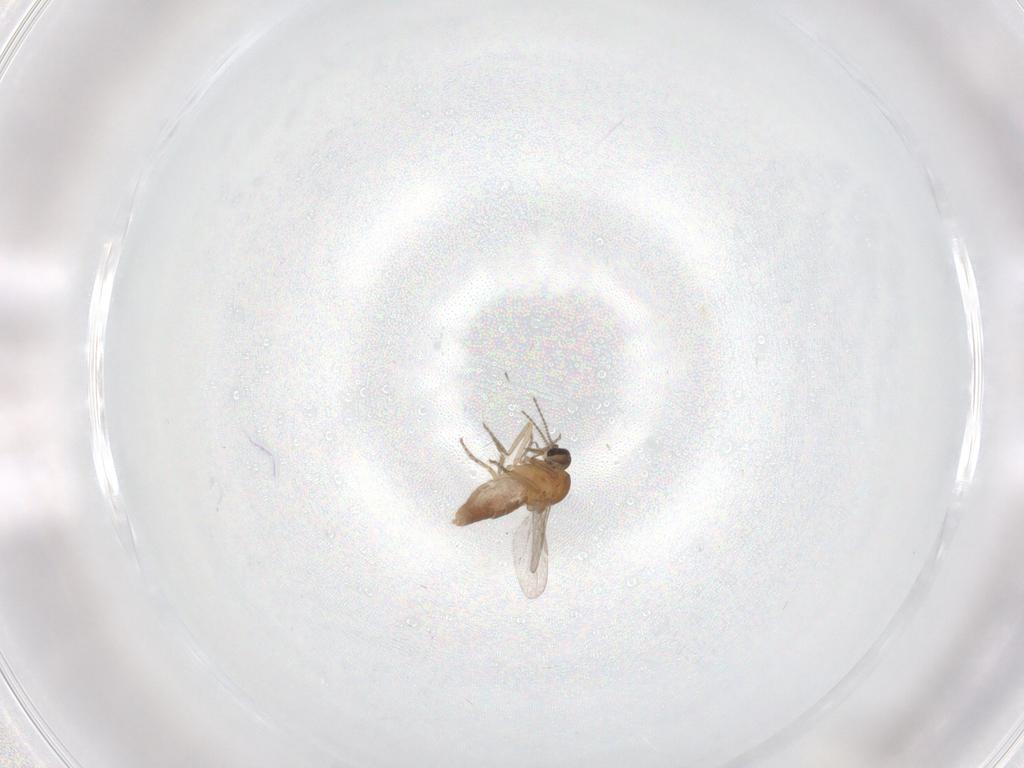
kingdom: Animalia
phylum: Arthropoda
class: Insecta
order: Diptera
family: Ceratopogonidae
